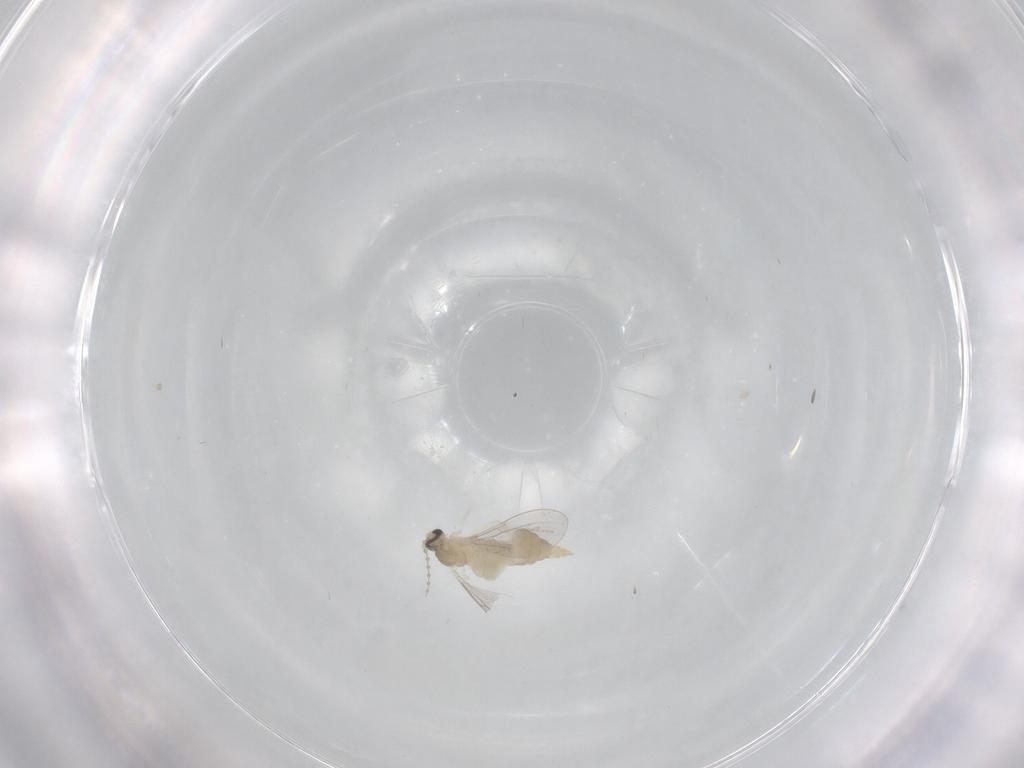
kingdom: Animalia
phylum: Arthropoda
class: Insecta
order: Diptera
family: Cecidomyiidae
